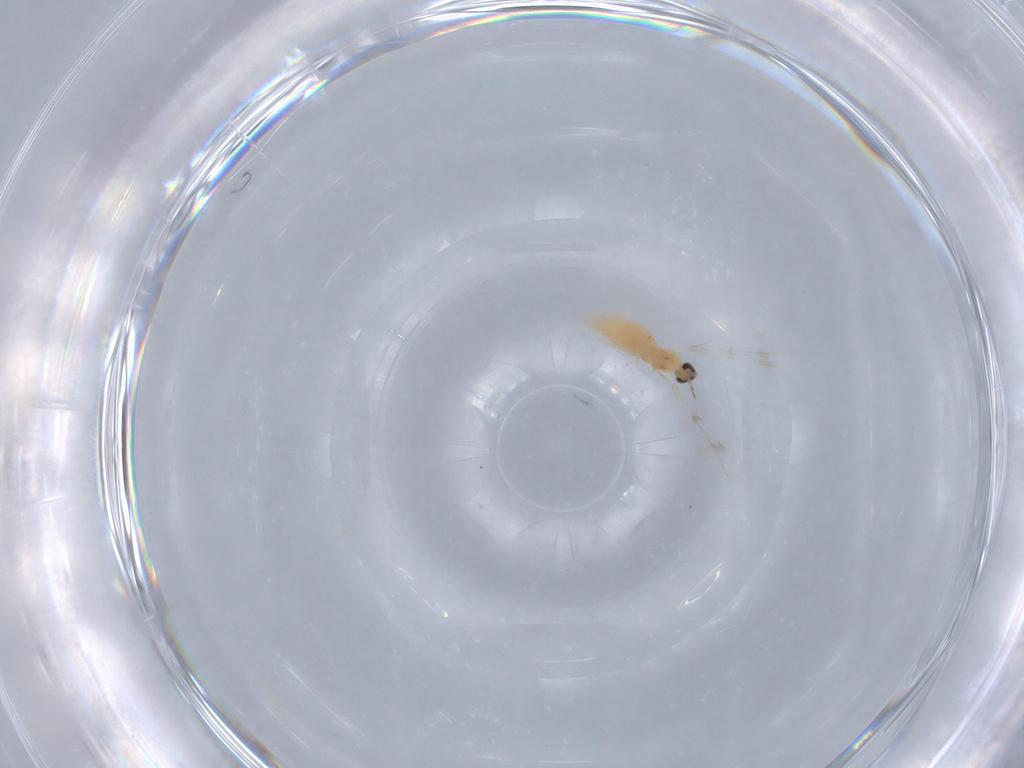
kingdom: Animalia
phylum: Arthropoda
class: Insecta
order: Diptera
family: Cecidomyiidae
